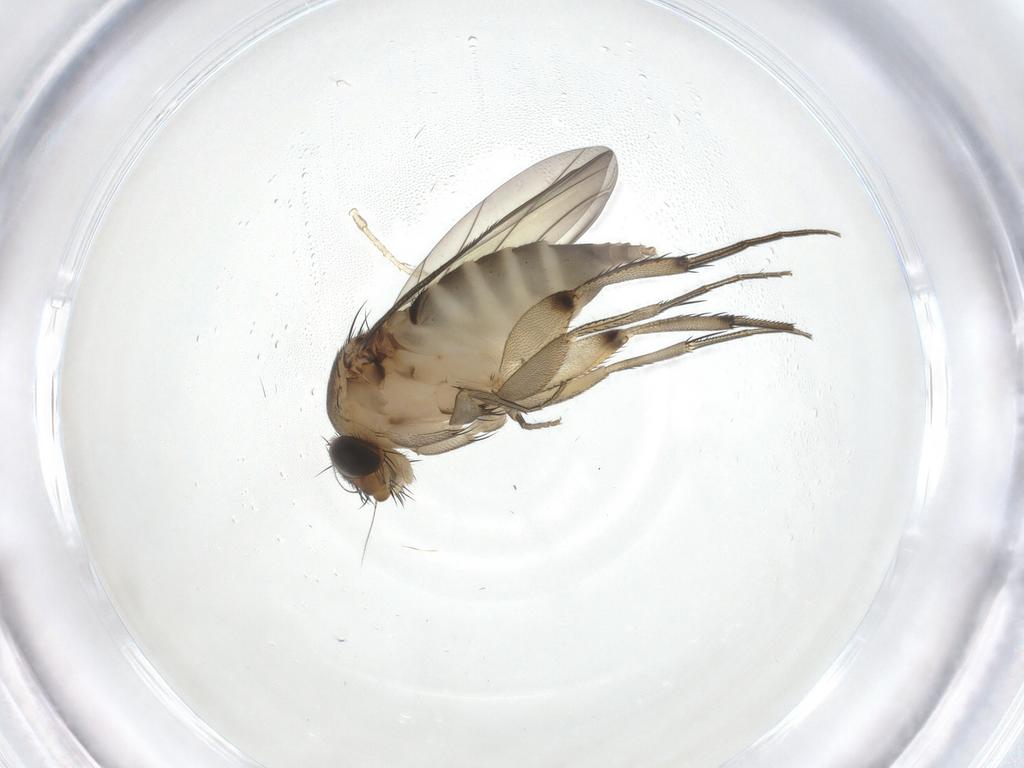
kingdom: Animalia
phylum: Arthropoda
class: Insecta
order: Diptera
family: Phoridae
